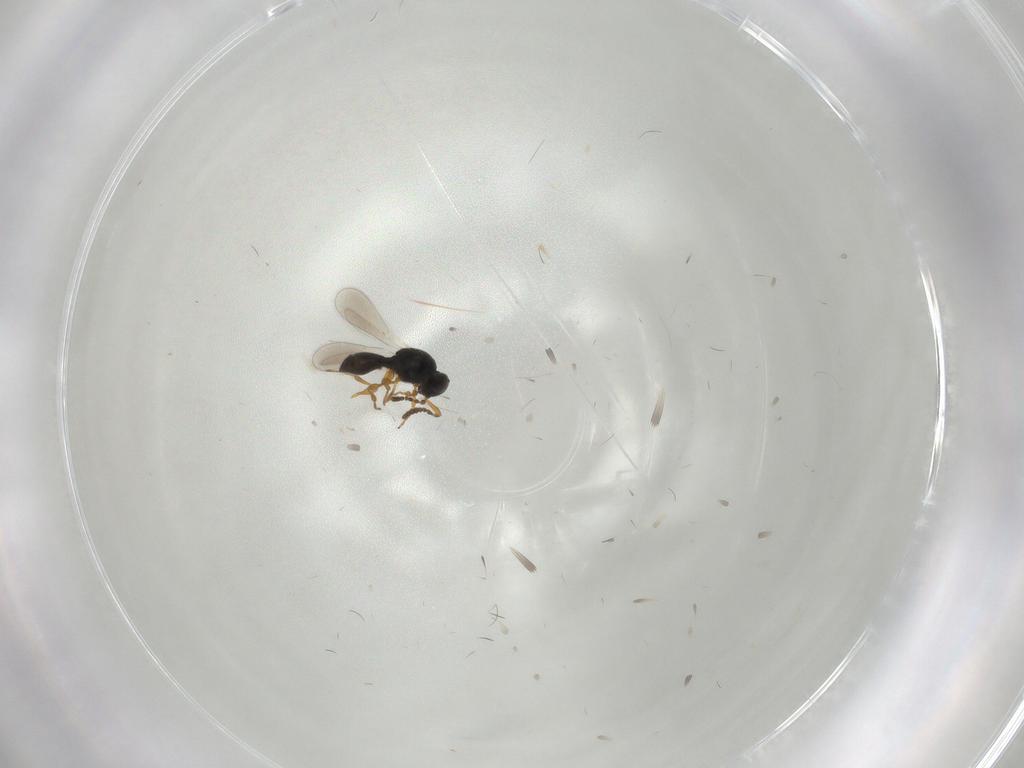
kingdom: Animalia
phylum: Arthropoda
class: Insecta
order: Hymenoptera
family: Platygastridae
